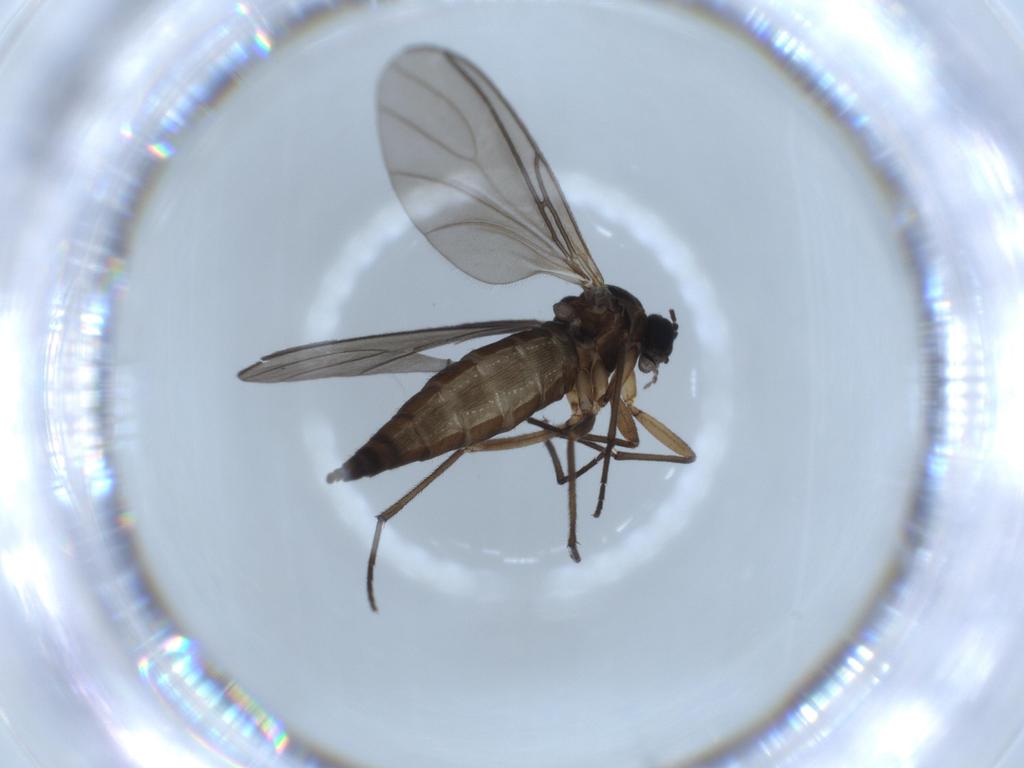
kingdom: Animalia
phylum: Arthropoda
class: Insecta
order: Diptera
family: Sciaridae
